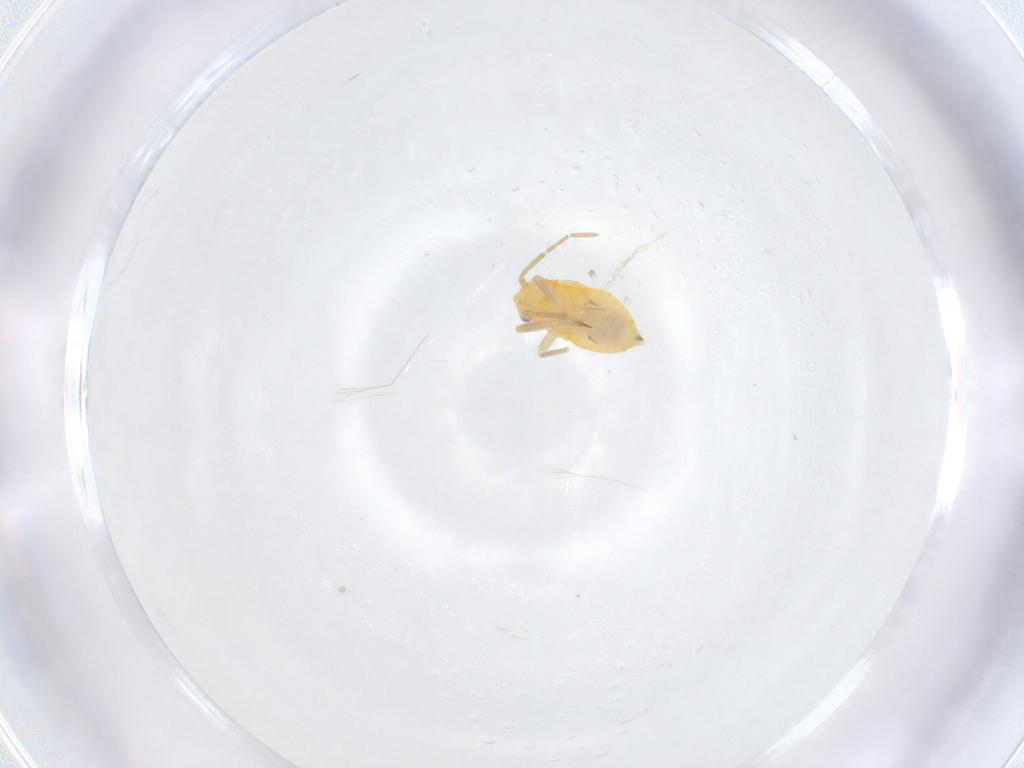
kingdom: Animalia
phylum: Arthropoda
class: Insecta
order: Hemiptera
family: Miridae
